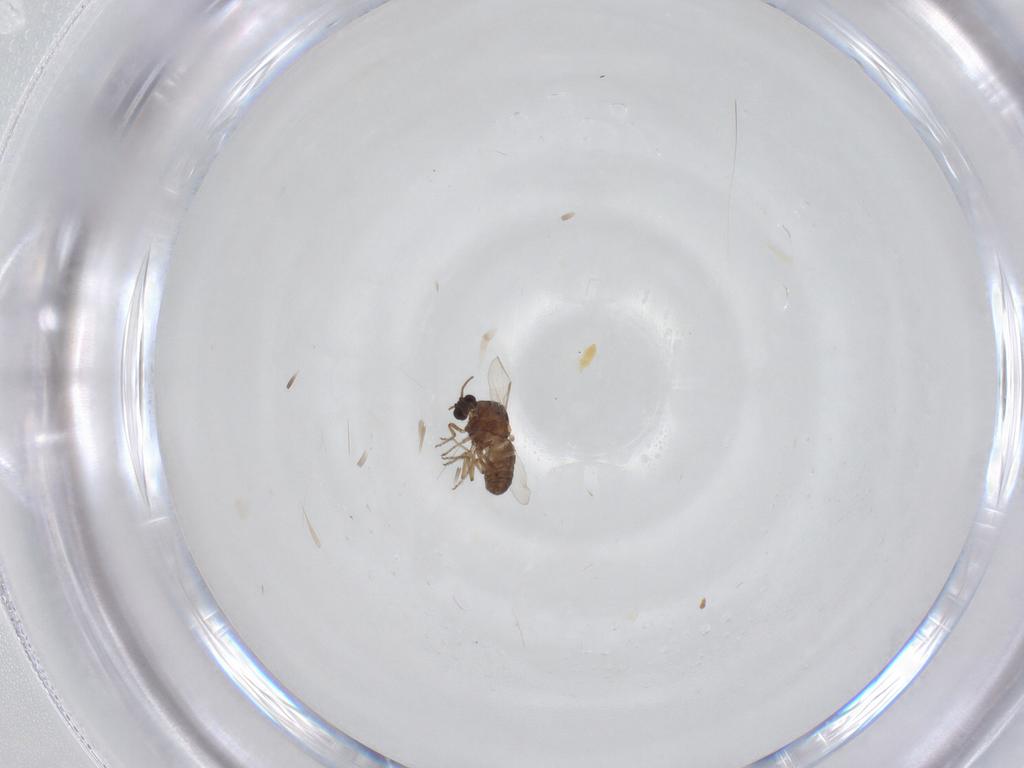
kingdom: Animalia
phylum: Arthropoda
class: Insecta
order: Diptera
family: Ceratopogonidae
